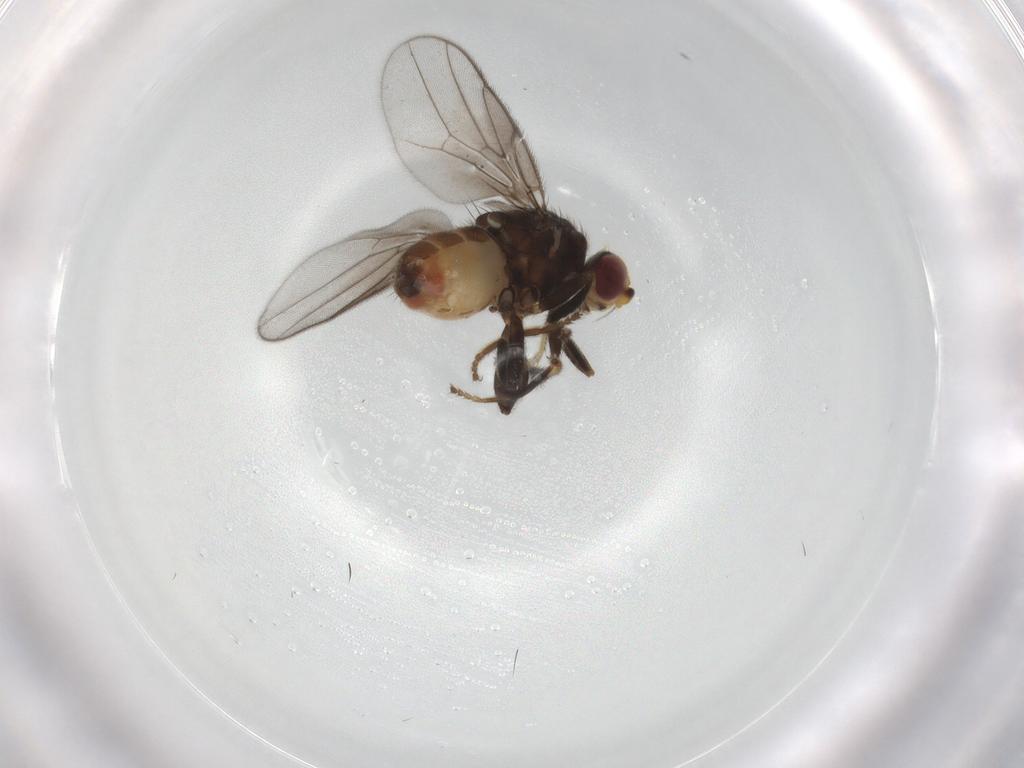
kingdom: Animalia
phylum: Arthropoda
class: Insecta
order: Diptera
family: Chloropidae
